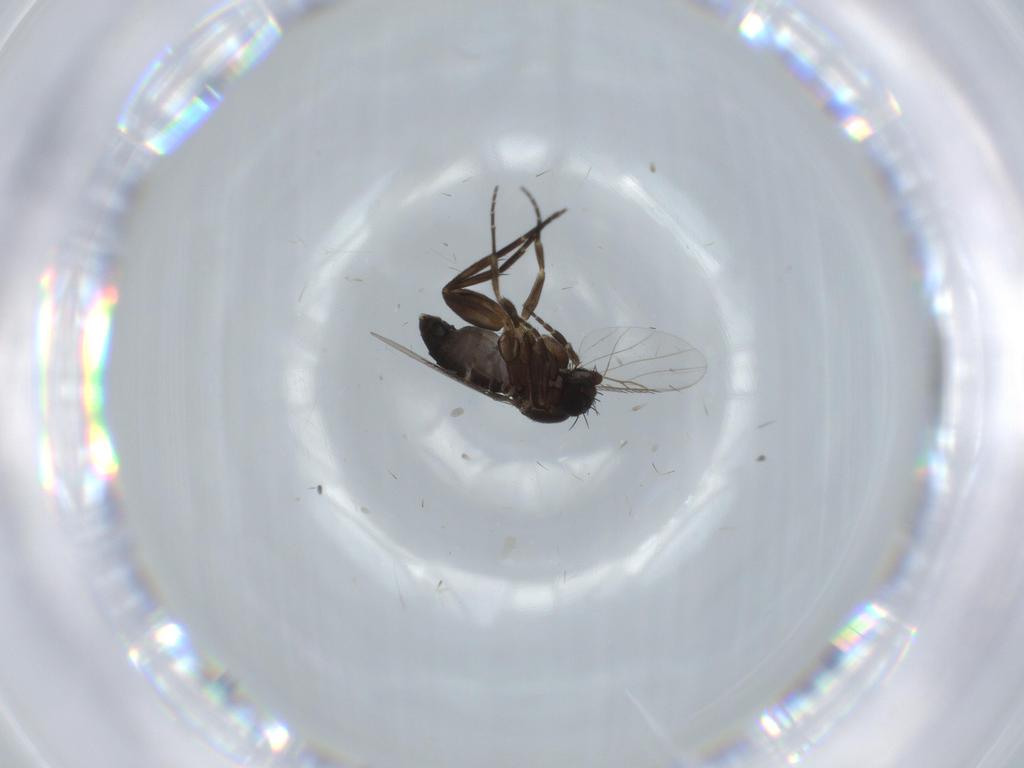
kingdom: Animalia
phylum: Arthropoda
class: Insecta
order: Diptera
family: Phoridae
